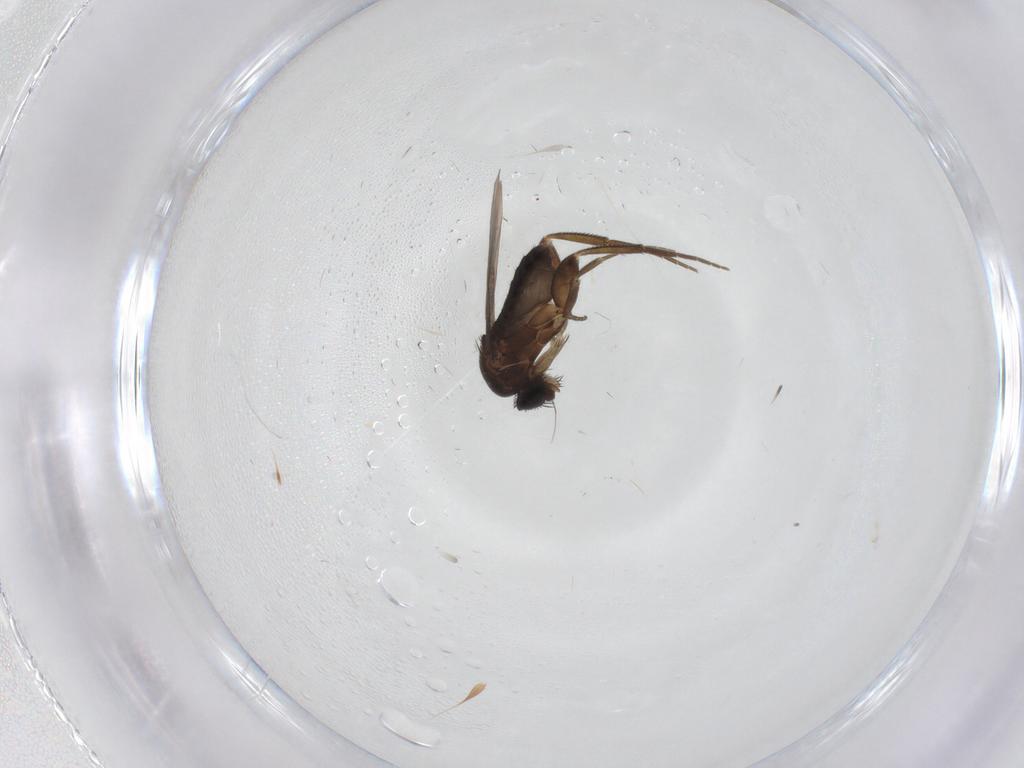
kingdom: Animalia
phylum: Arthropoda
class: Insecta
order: Diptera
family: Phoridae
